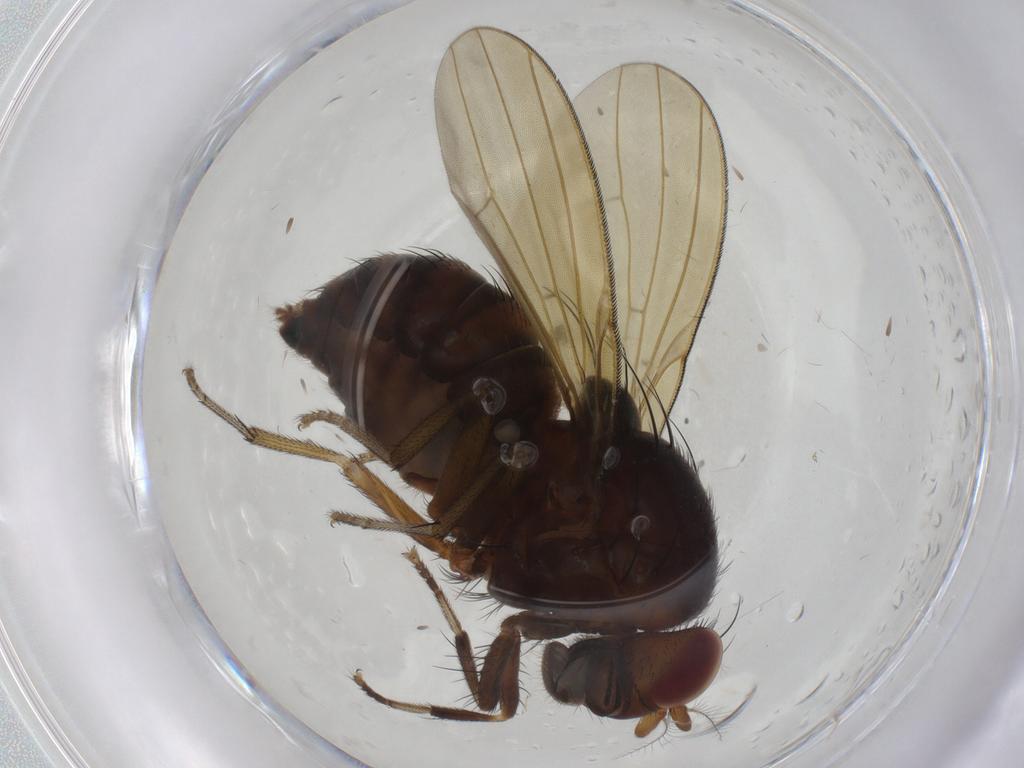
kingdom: Animalia
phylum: Arthropoda
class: Insecta
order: Diptera
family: Phoridae
